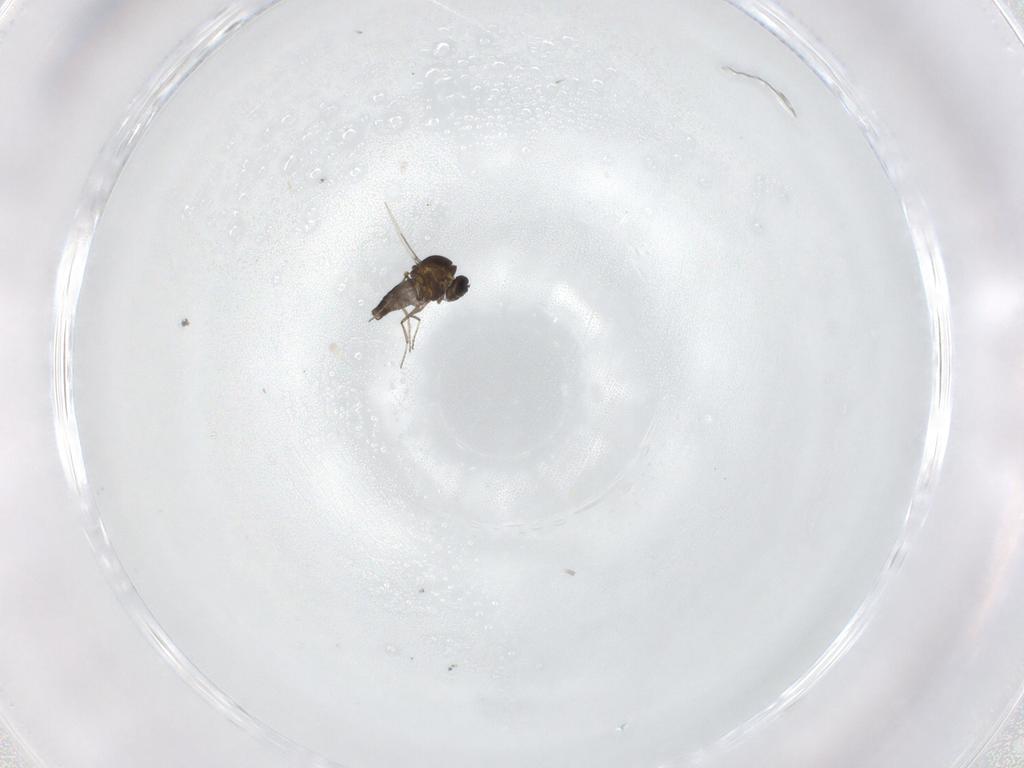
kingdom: Animalia
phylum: Arthropoda
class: Insecta
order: Diptera
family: Ceratopogonidae
